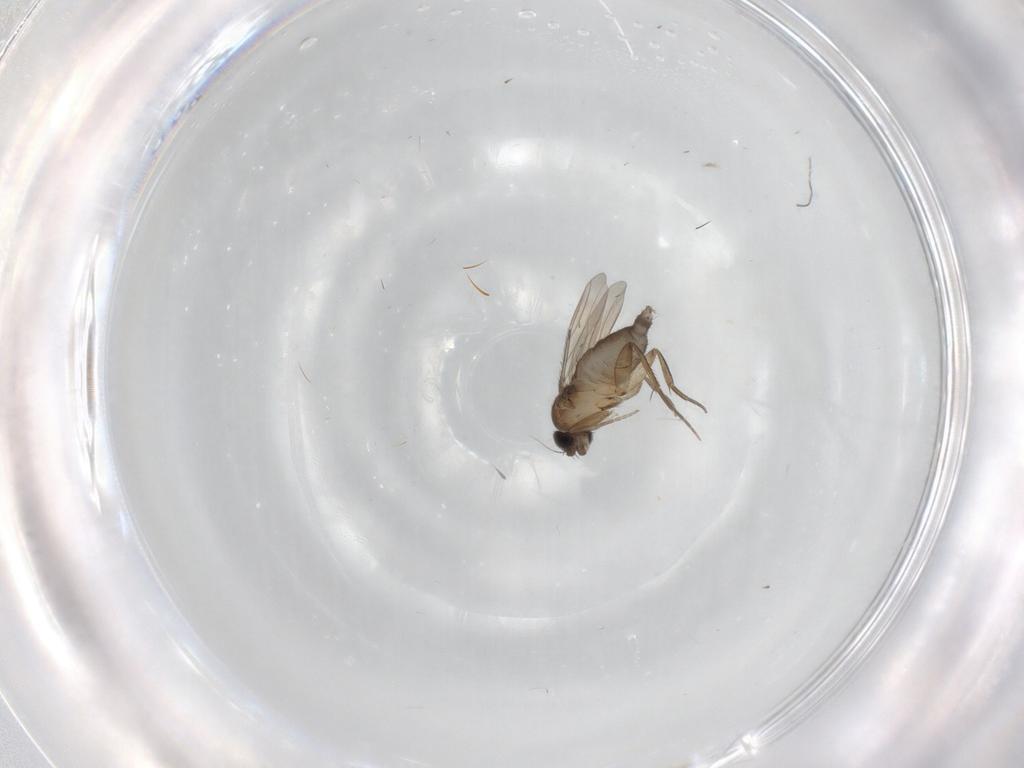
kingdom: Animalia
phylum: Arthropoda
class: Insecta
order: Diptera
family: Phoridae
